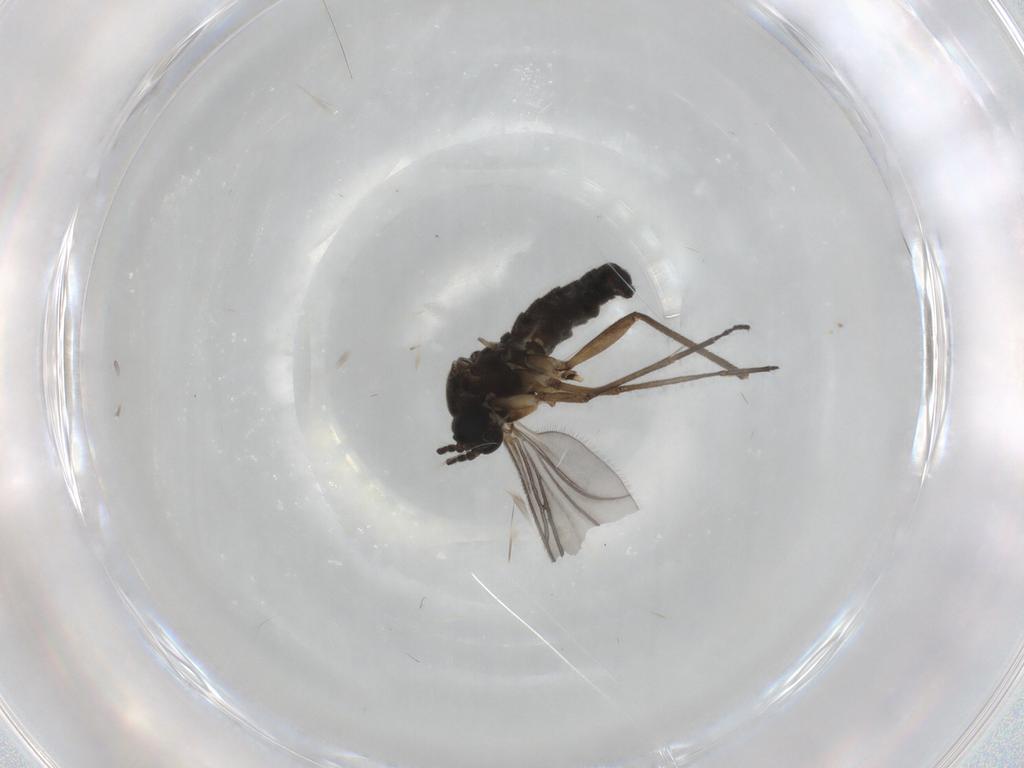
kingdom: Animalia
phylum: Arthropoda
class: Insecta
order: Diptera
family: Sciaridae
